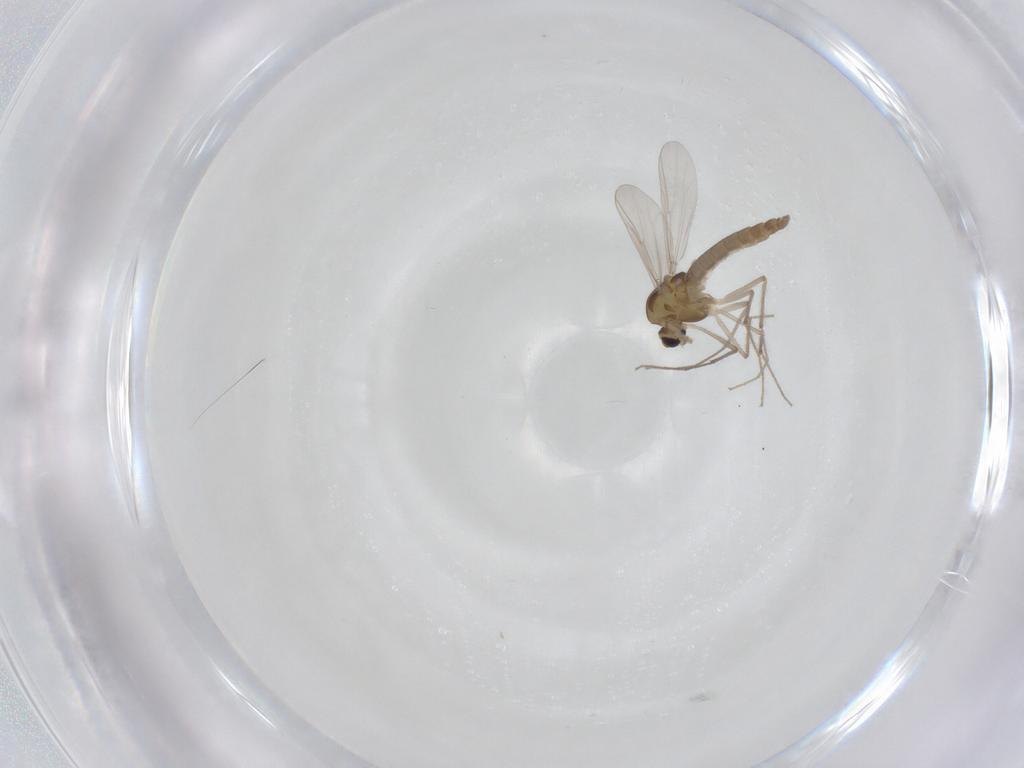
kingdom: Animalia
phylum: Arthropoda
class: Insecta
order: Diptera
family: Chironomidae
